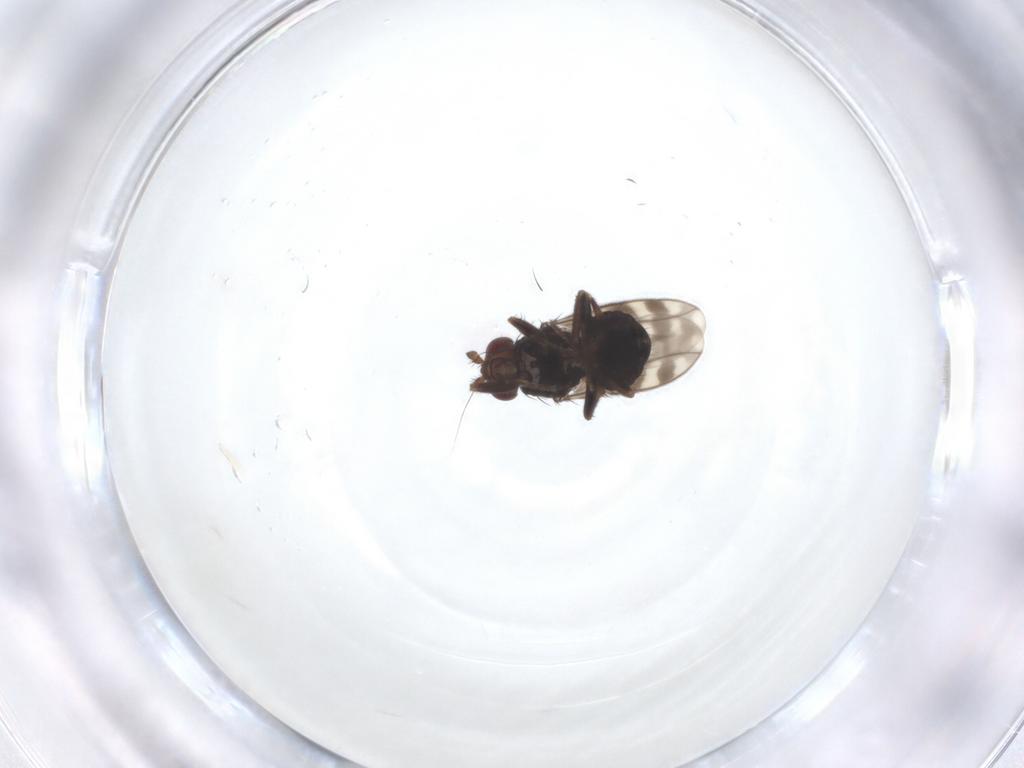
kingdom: Animalia
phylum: Arthropoda
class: Insecta
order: Diptera
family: Sphaeroceridae
